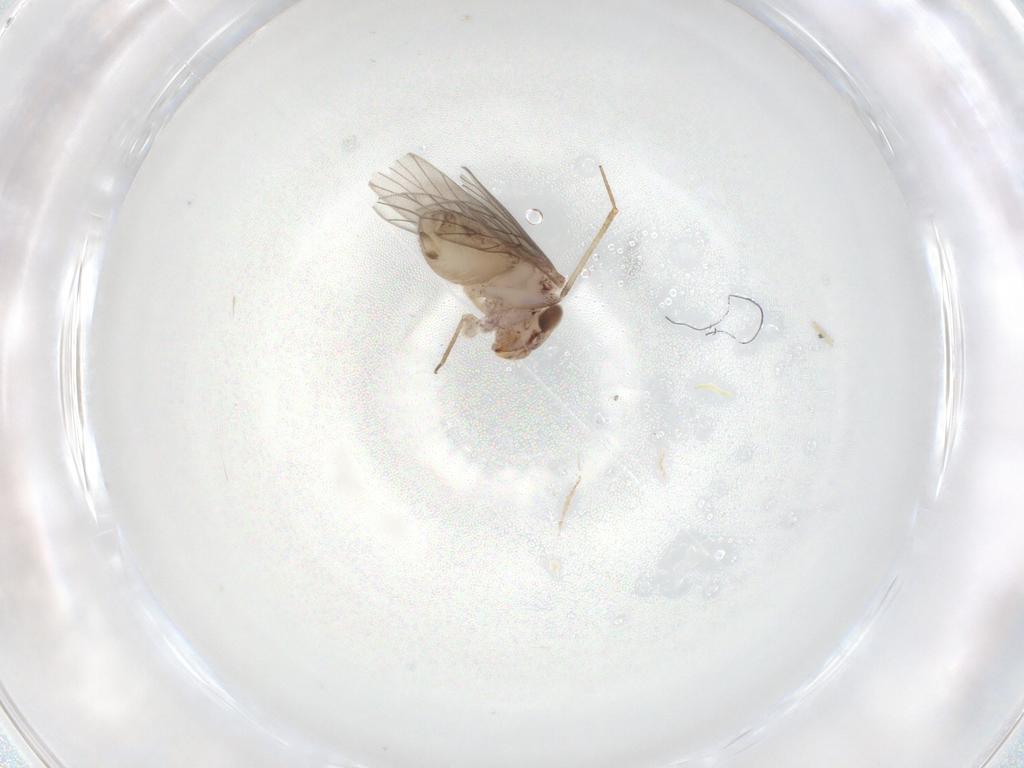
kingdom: Animalia
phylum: Arthropoda
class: Insecta
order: Psocodea
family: Lepidopsocidae
